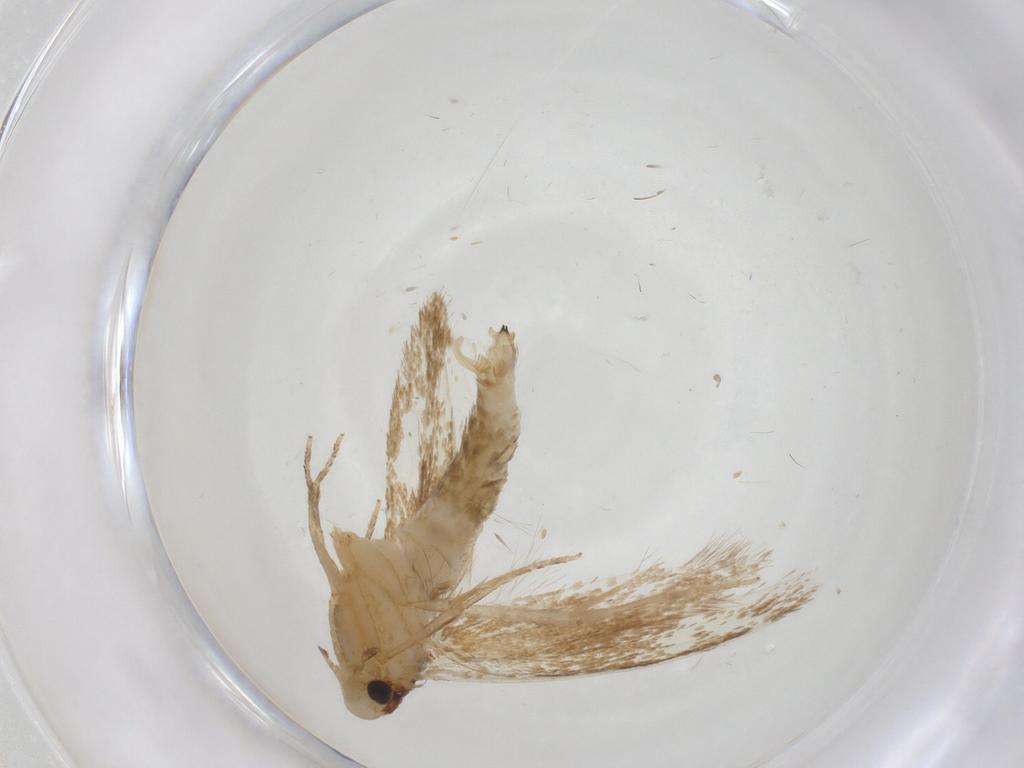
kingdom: Animalia
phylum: Arthropoda
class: Insecta
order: Lepidoptera
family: Tineidae
